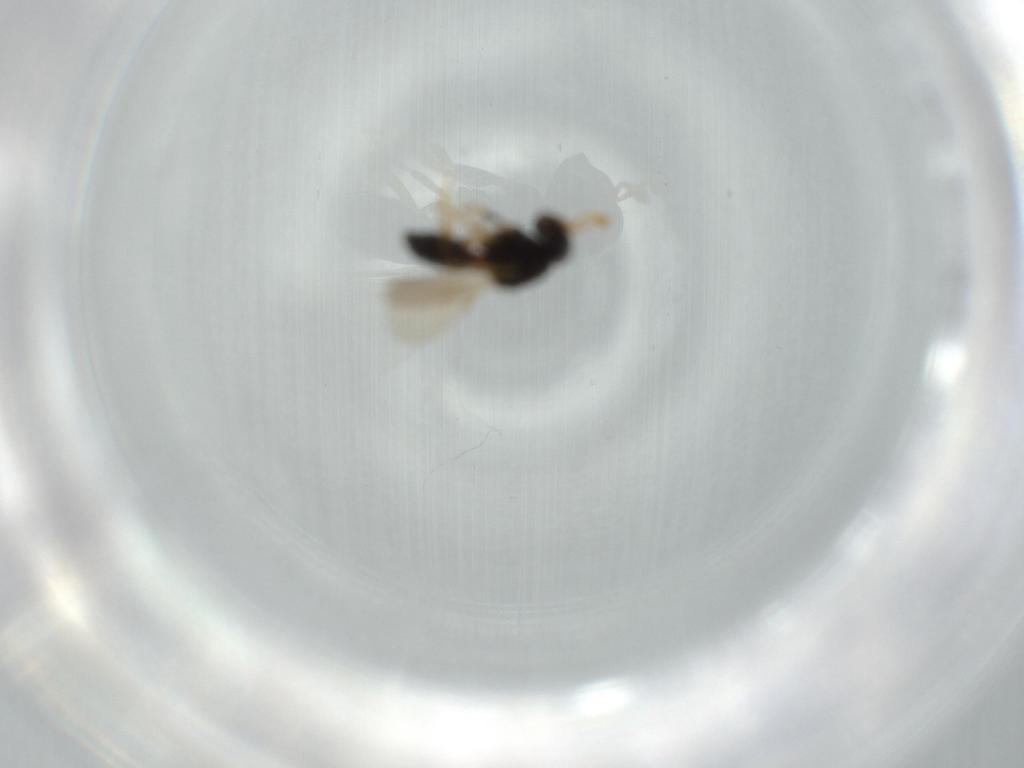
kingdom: Animalia
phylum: Arthropoda
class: Insecta
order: Hymenoptera
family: Scelionidae
